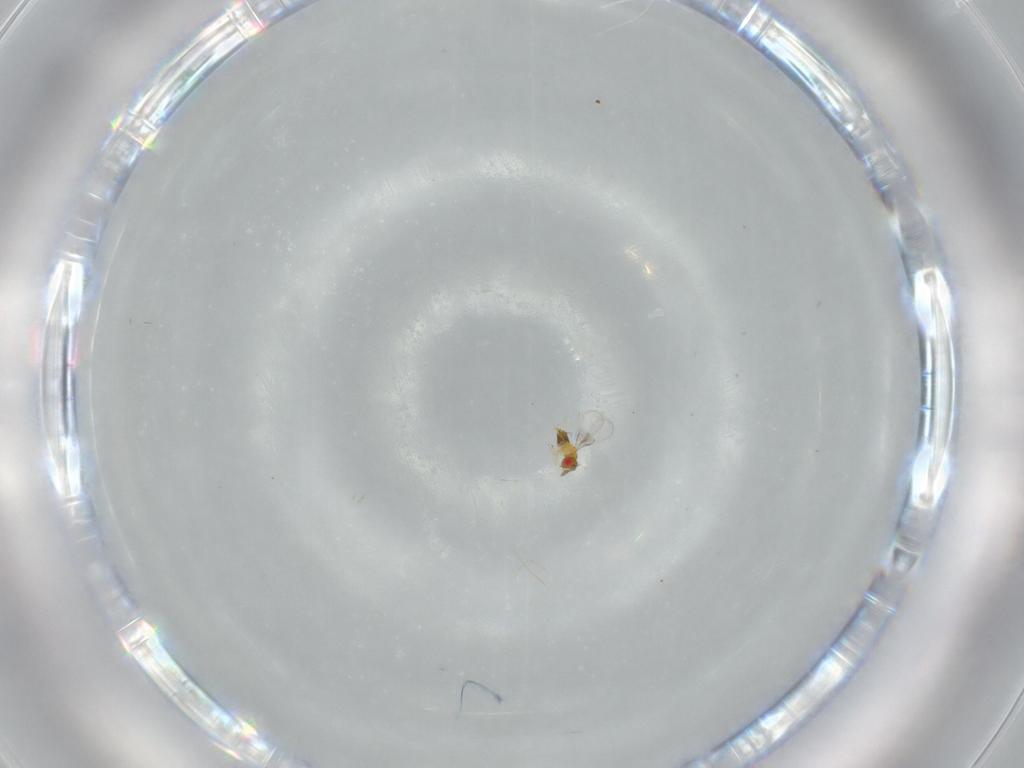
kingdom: Animalia
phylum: Arthropoda
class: Insecta
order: Hymenoptera
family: Trichogrammatidae
